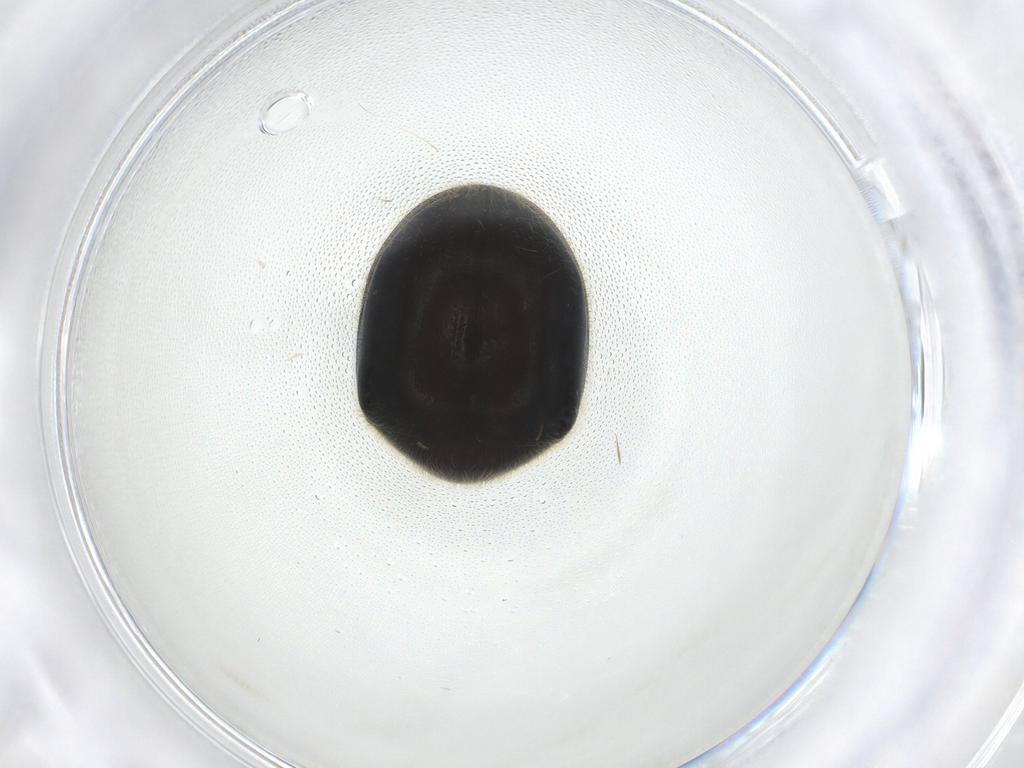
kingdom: Animalia
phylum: Arthropoda
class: Insecta
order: Coleoptera
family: Ptinidae
